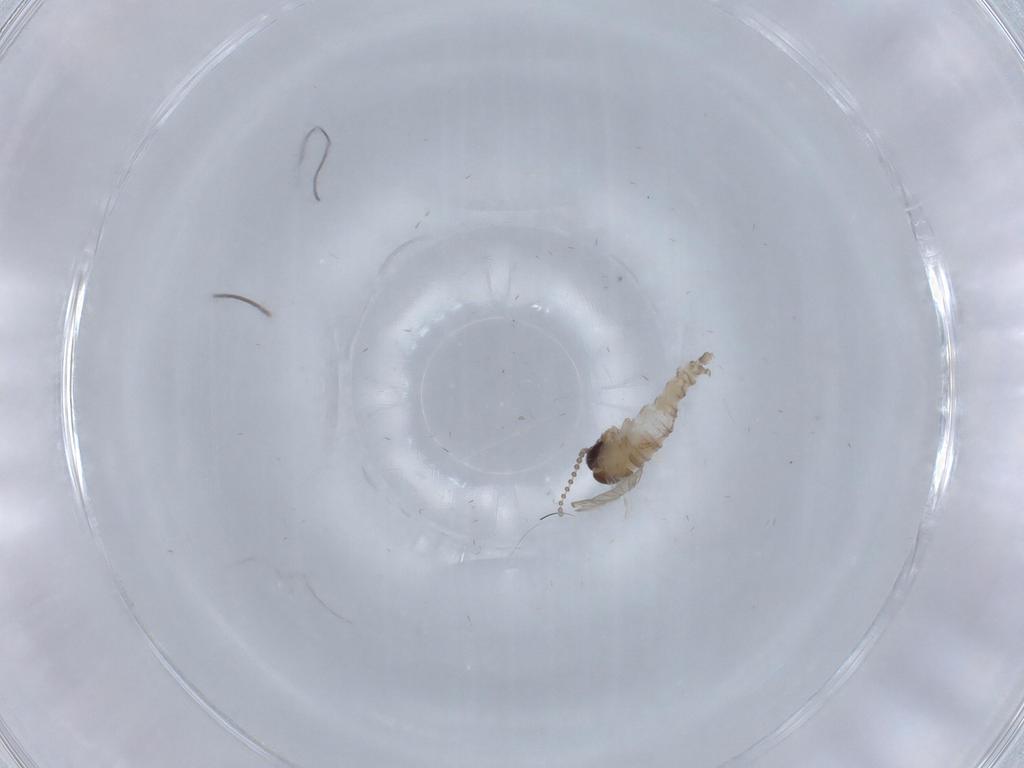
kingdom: Animalia
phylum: Arthropoda
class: Insecta
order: Diptera
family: Psychodidae
